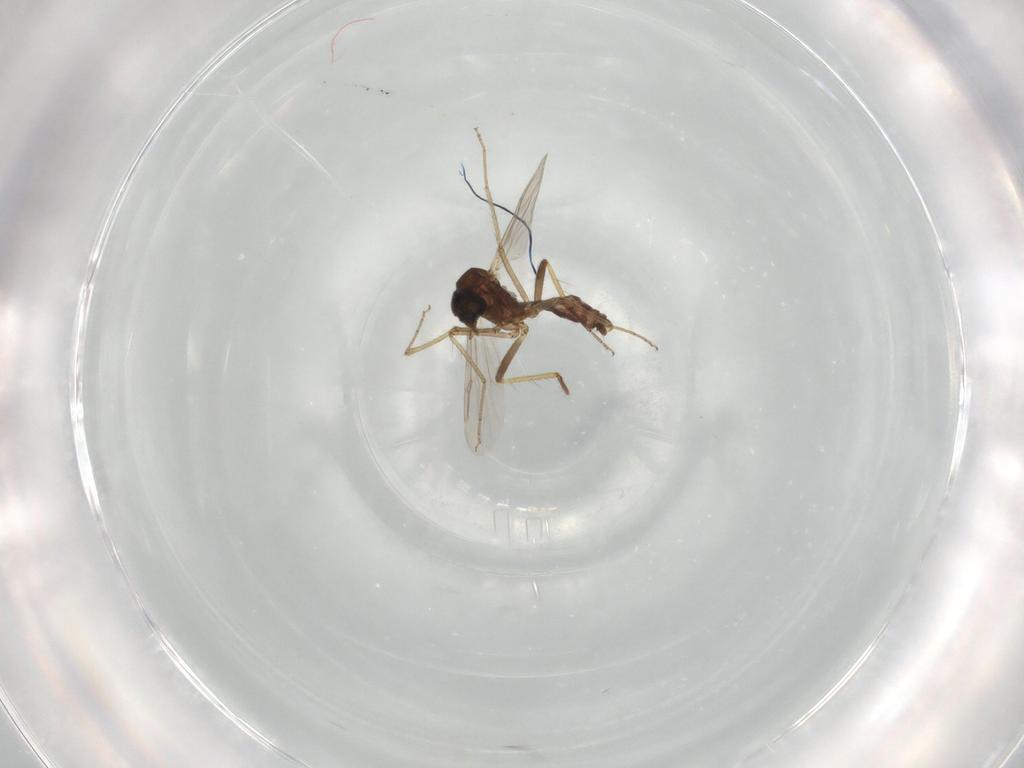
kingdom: Animalia
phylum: Arthropoda
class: Insecta
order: Diptera
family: Ceratopogonidae
